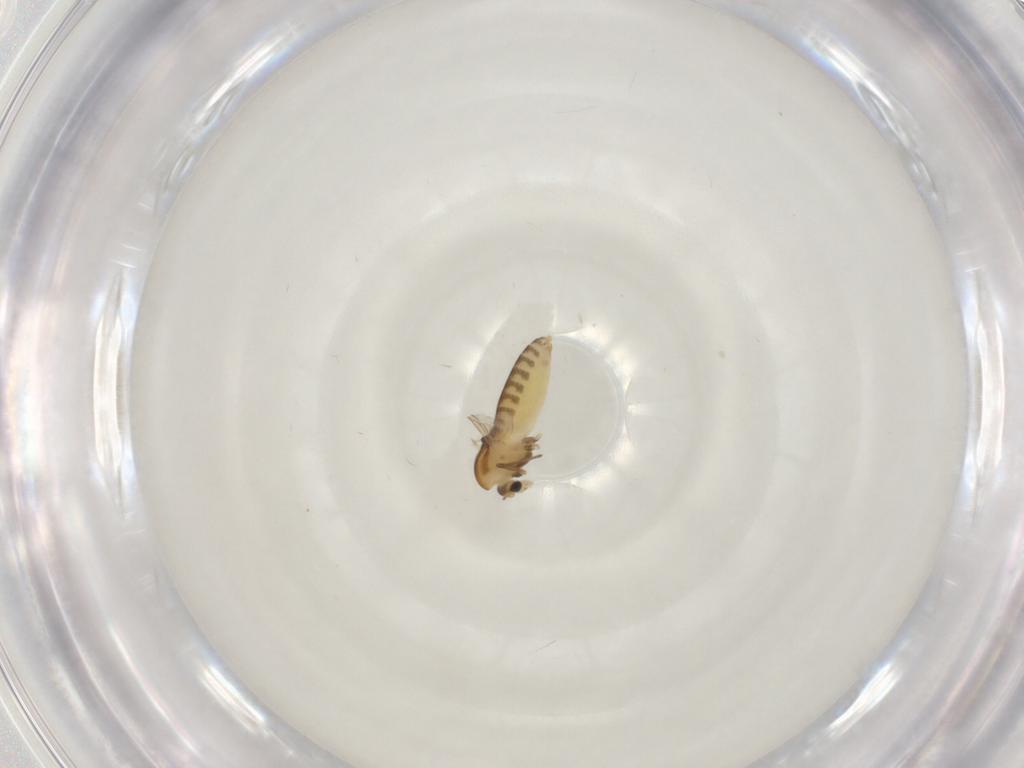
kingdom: Animalia
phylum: Arthropoda
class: Insecta
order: Diptera
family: Chironomidae
